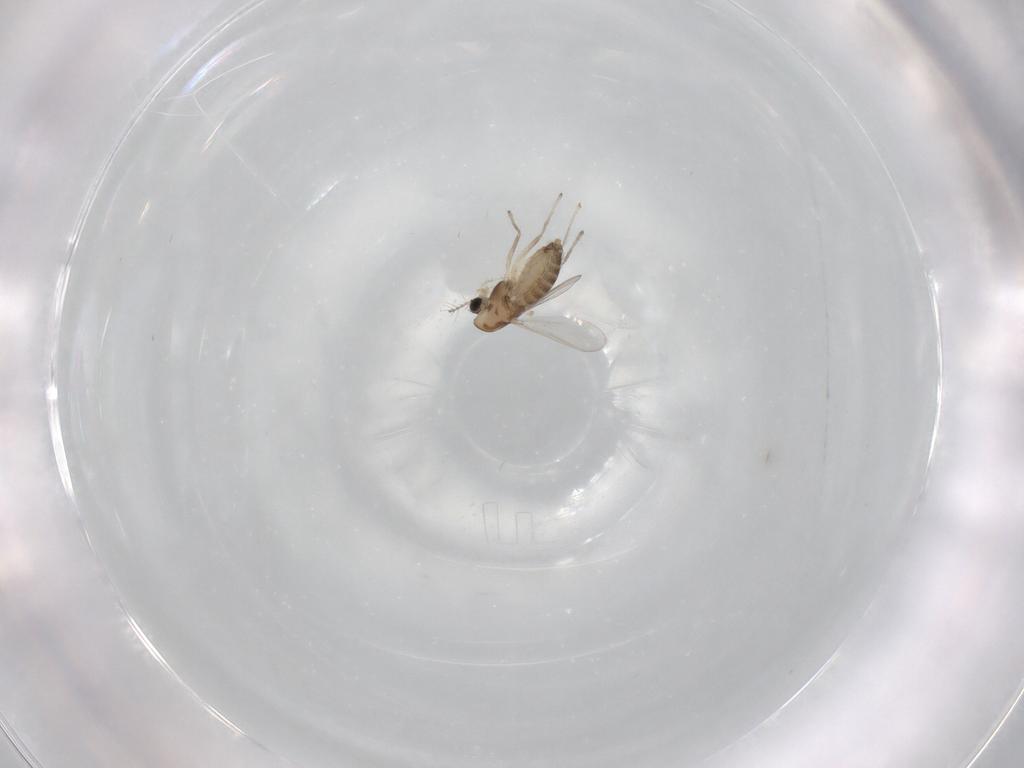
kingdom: Animalia
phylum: Arthropoda
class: Insecta
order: Diptera
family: Chironomidae
